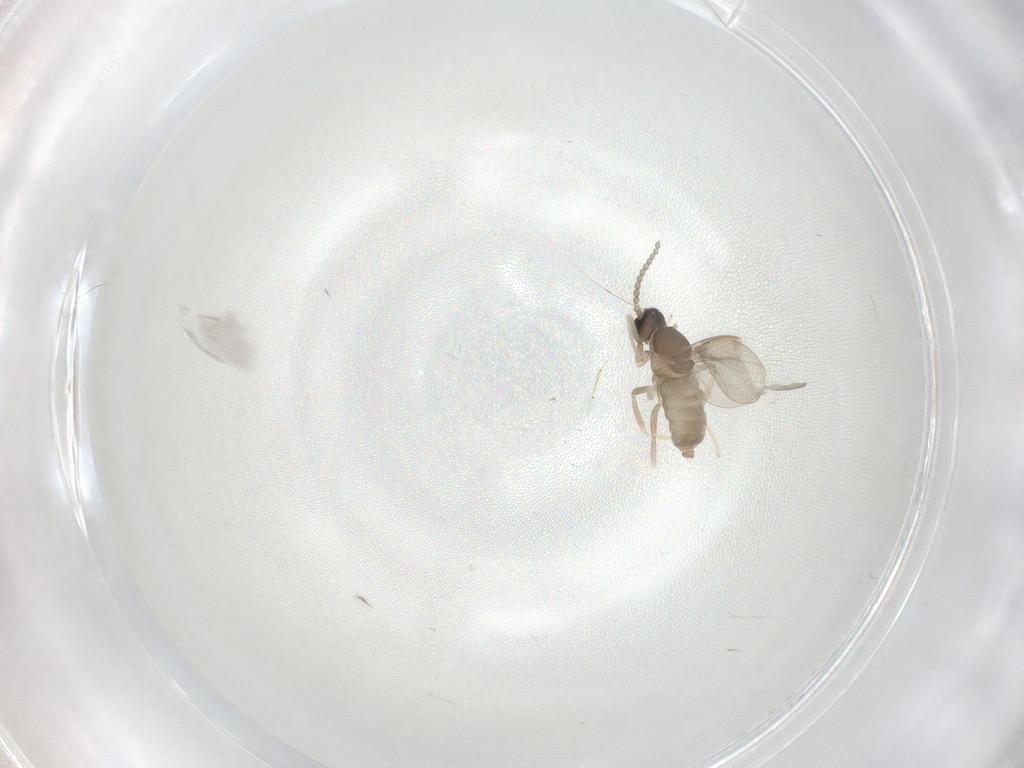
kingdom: Animalia
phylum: Arthropoda
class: Insecta
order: Diptera
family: Cecidomyiidae
